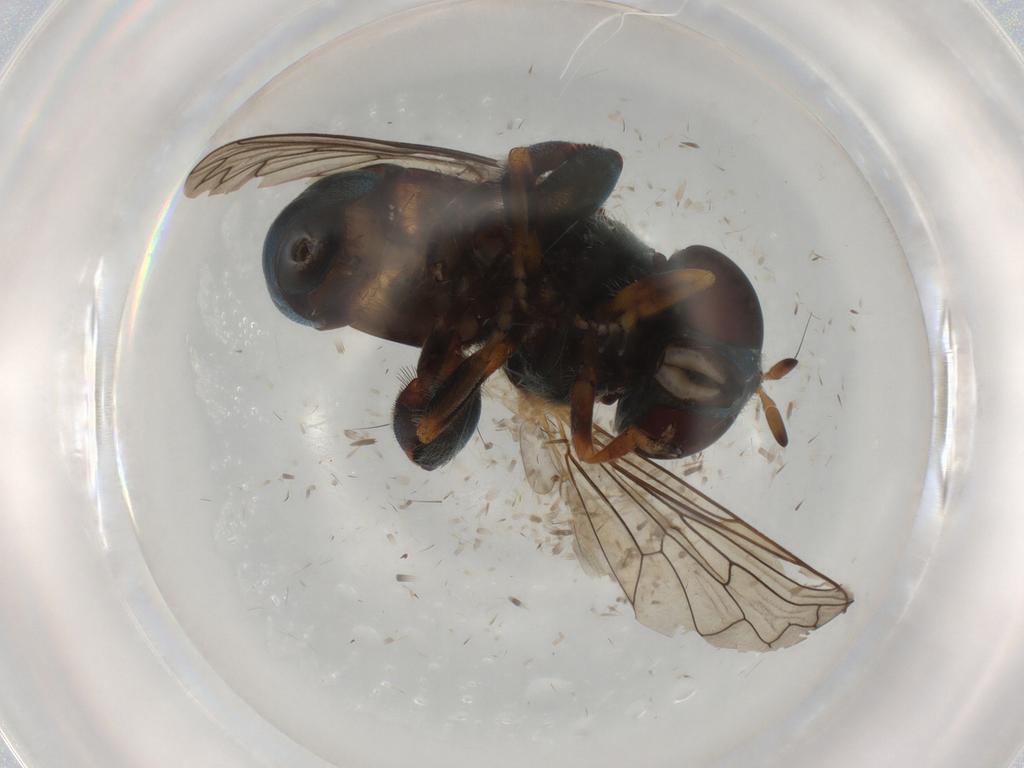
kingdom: Animalia
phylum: Arthropoda
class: Insecta
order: Diptera
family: Syrphidae
